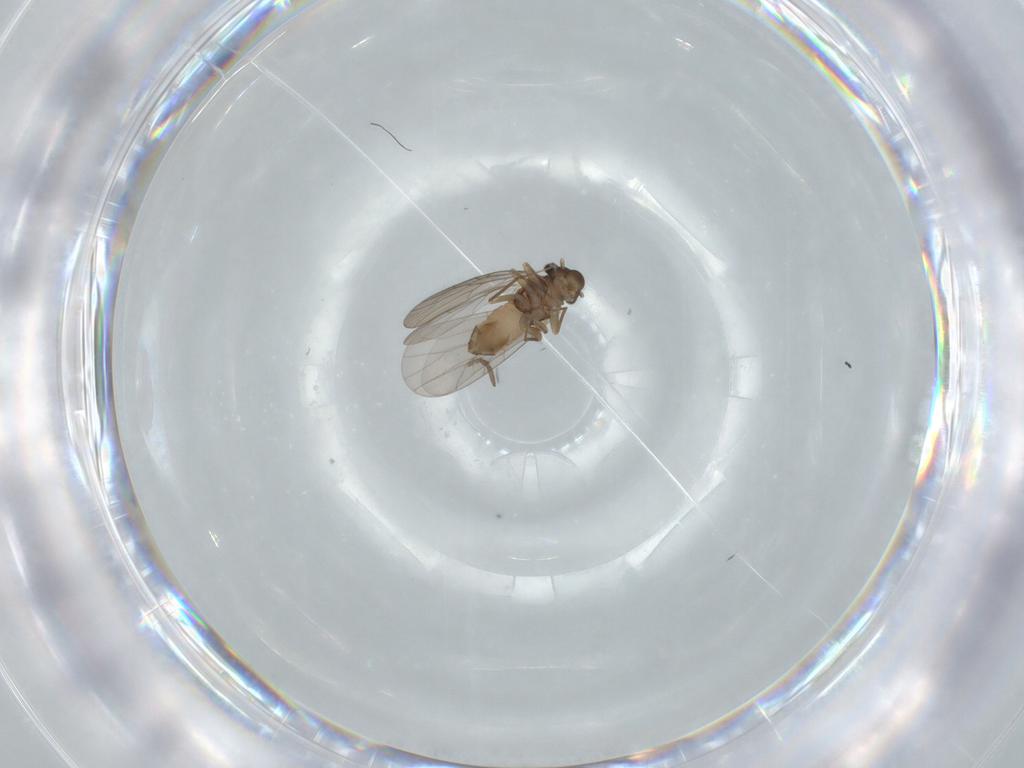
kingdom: Animalia
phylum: Arthropoda
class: Insecta
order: Psocodea
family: Lepidopsocidae
